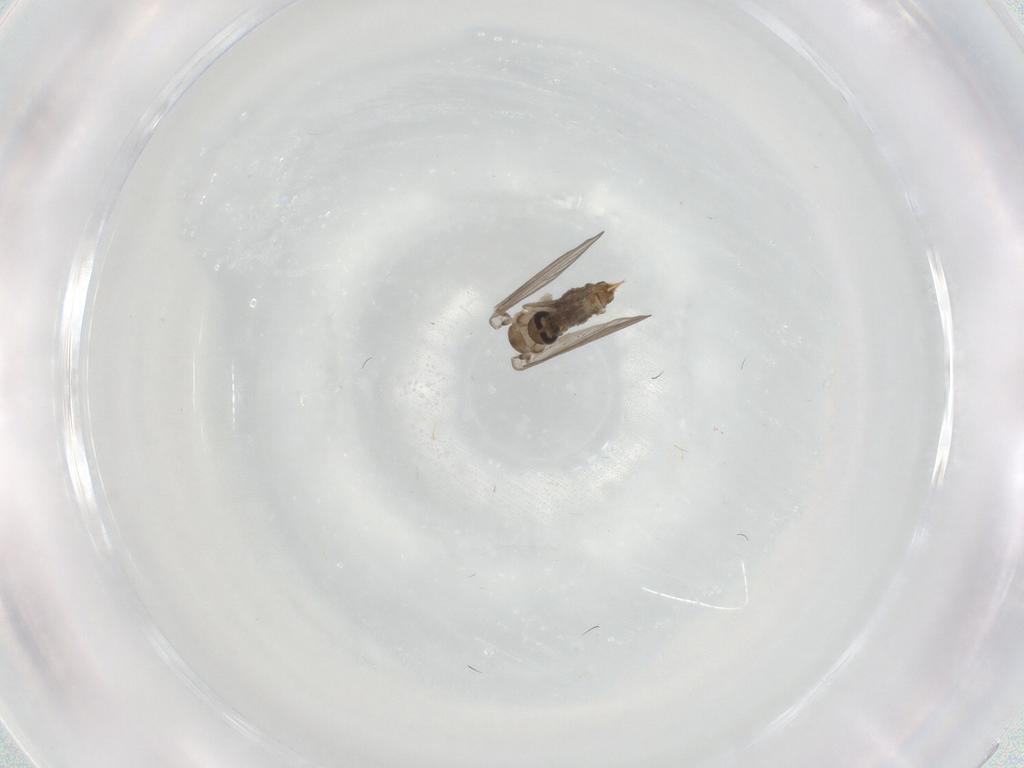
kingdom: Animalia
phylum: Arthropoda
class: Insecta
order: Diptera
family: Psychodidae
